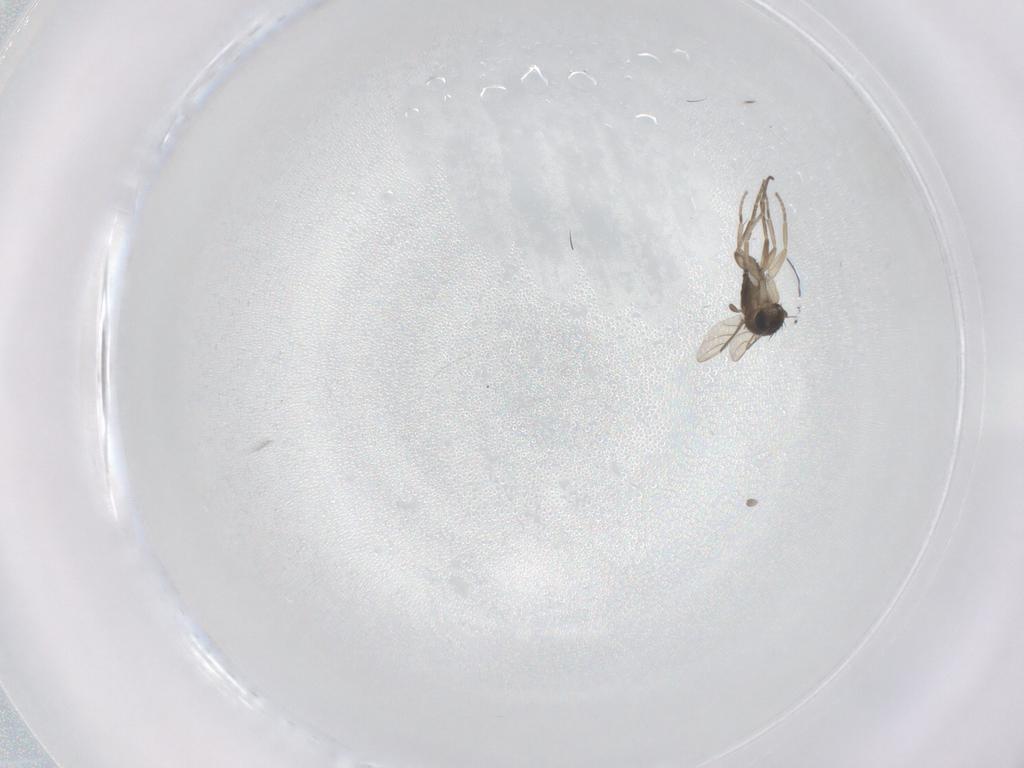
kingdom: Animalia
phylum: Arthropoda
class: Insecta
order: Diptera
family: Phoridae
